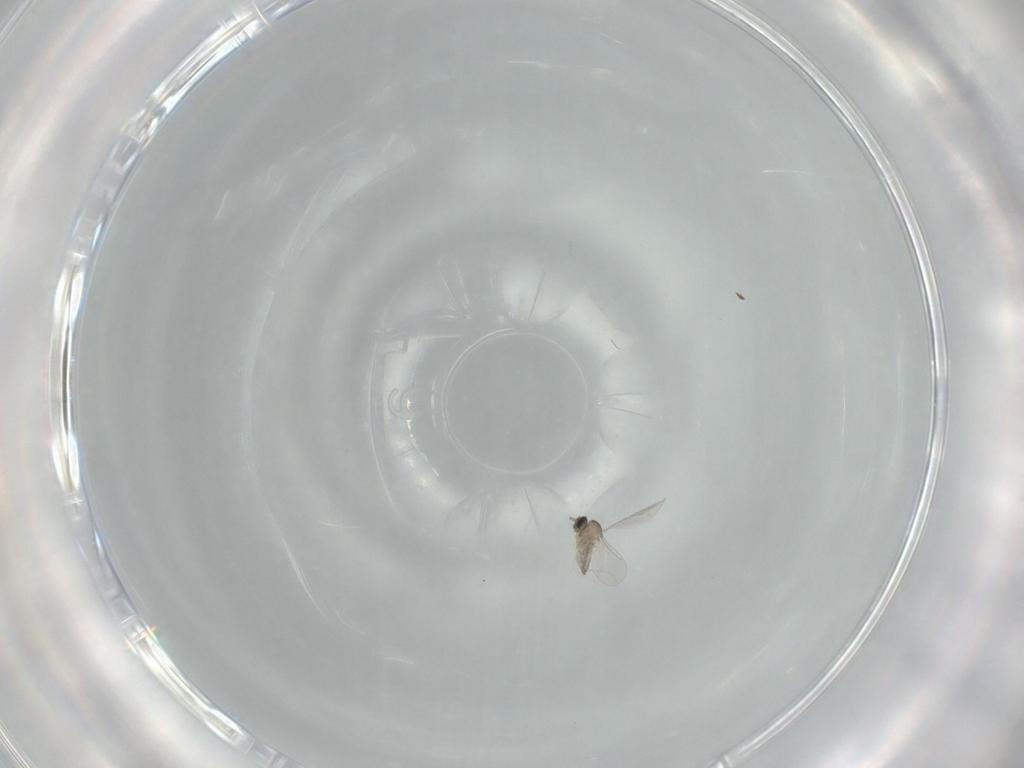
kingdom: Animalia
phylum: Arthropoda
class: Insecta
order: Diptera
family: Cecidomyiidae
